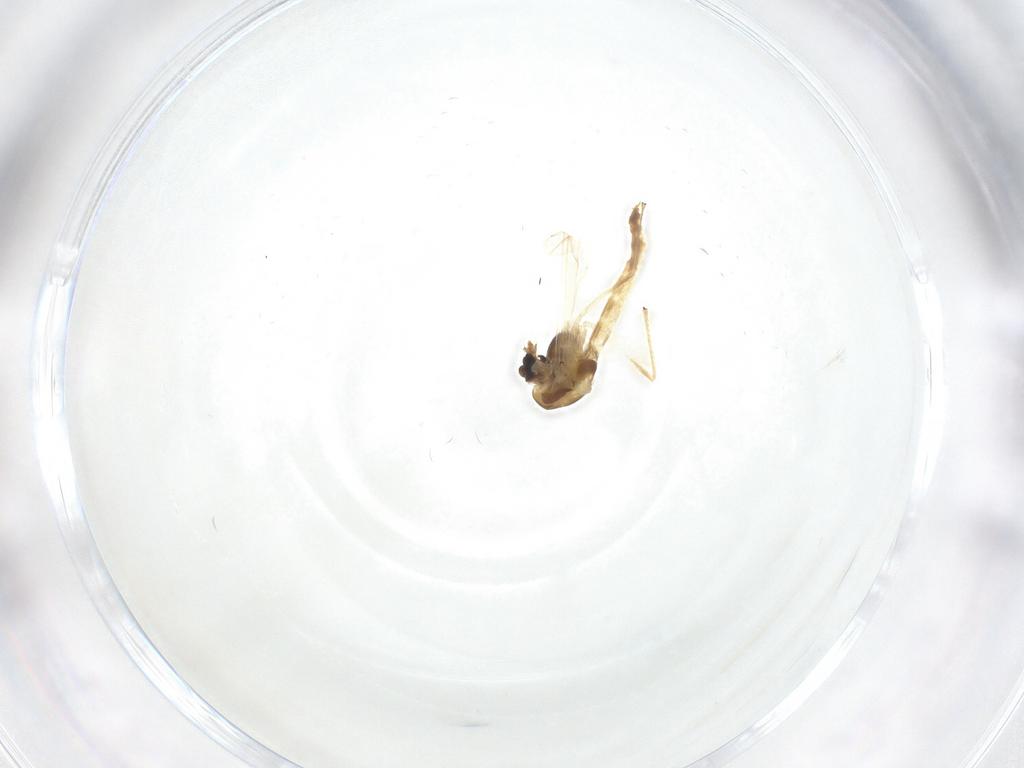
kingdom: Animalia
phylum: Arthropoda
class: Insecta
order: Diptera
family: Chironomidae
